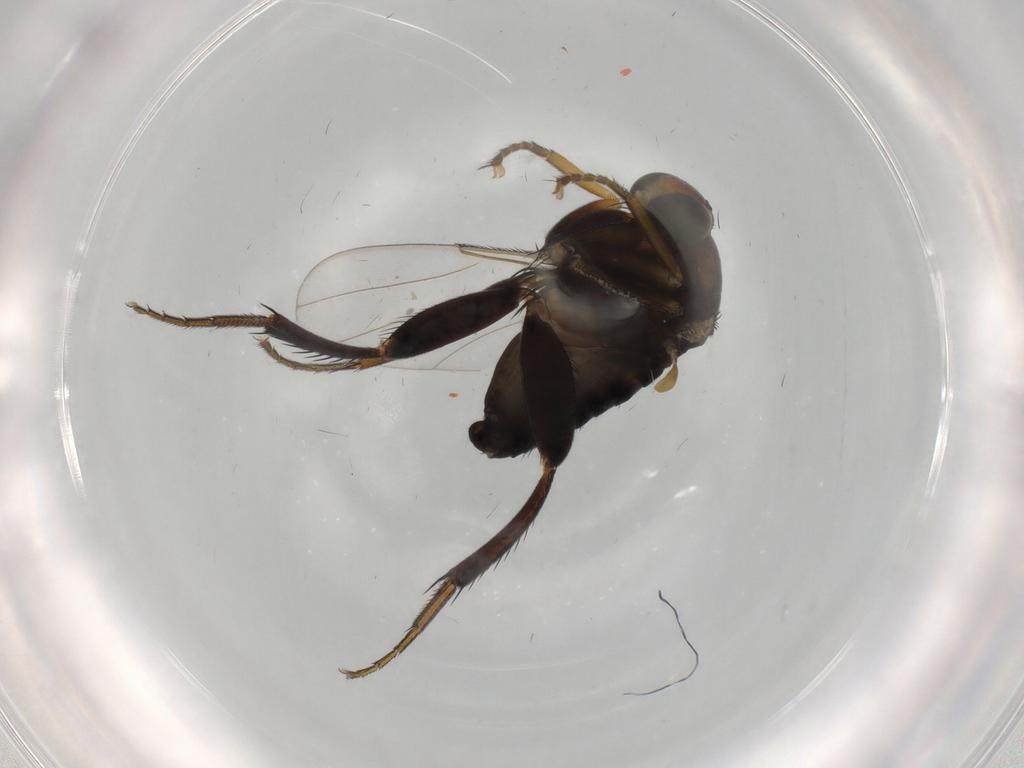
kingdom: Animalia
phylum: Arthropoda
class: Insecta
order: Diptera
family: Phoridae
